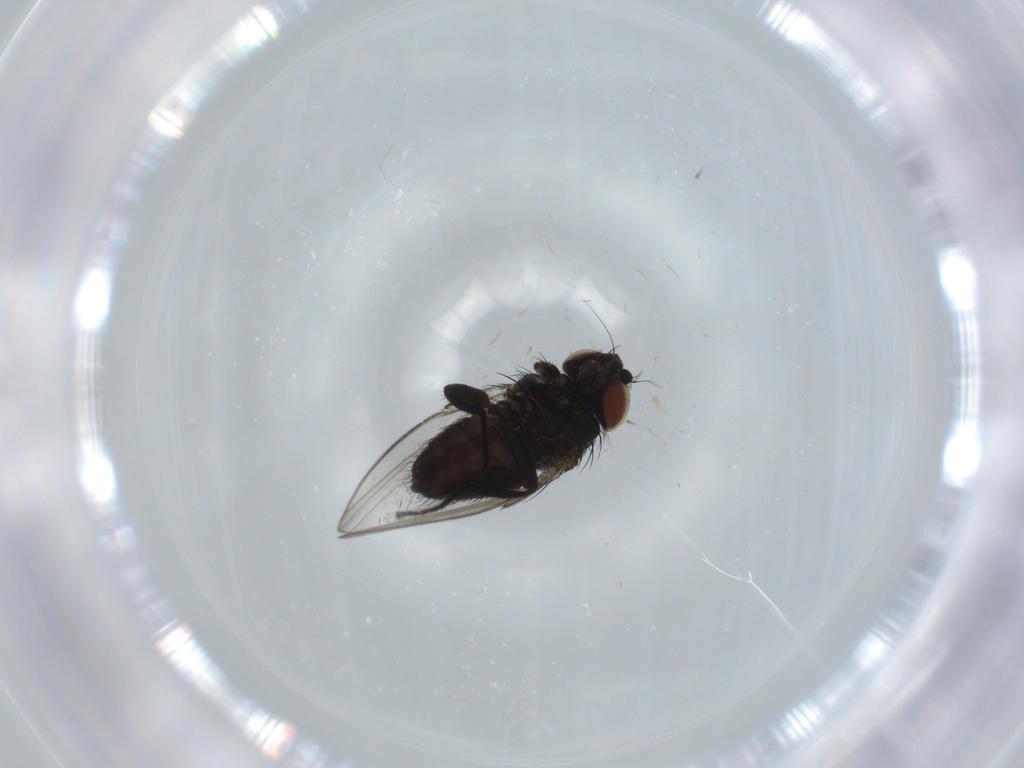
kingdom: Animalia
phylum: Arthropoda
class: Insecta
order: Diptera
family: Milichiidae
